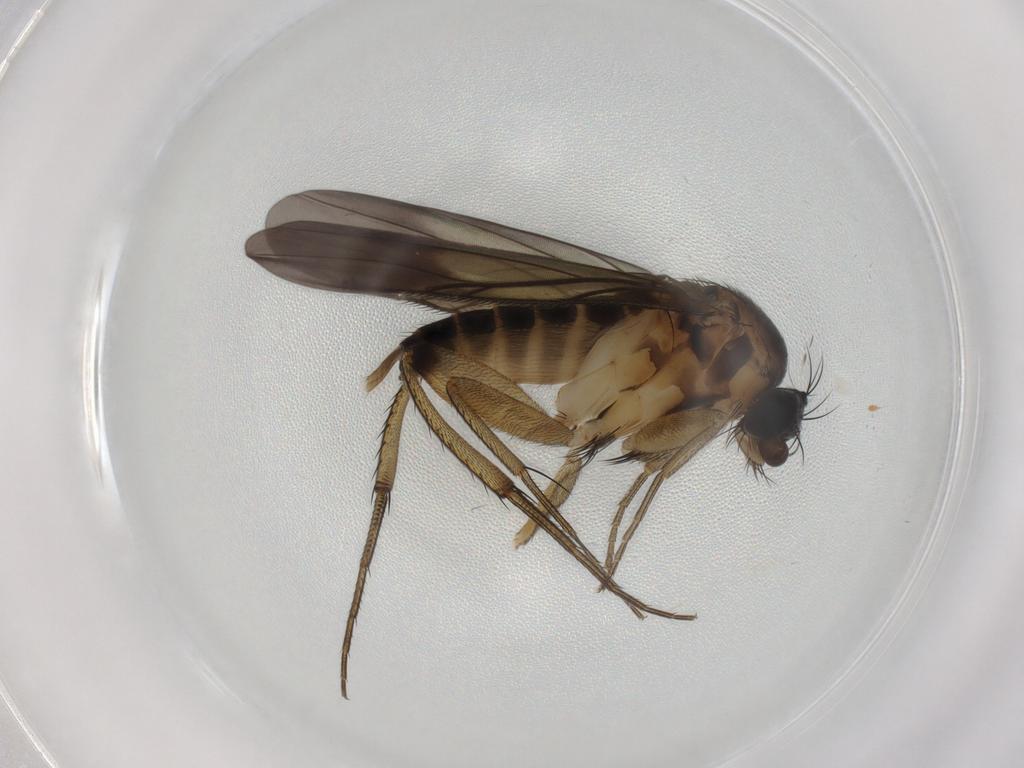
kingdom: Animalia
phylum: Arthropoda
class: Insecta
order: Diptera
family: Phoridae
